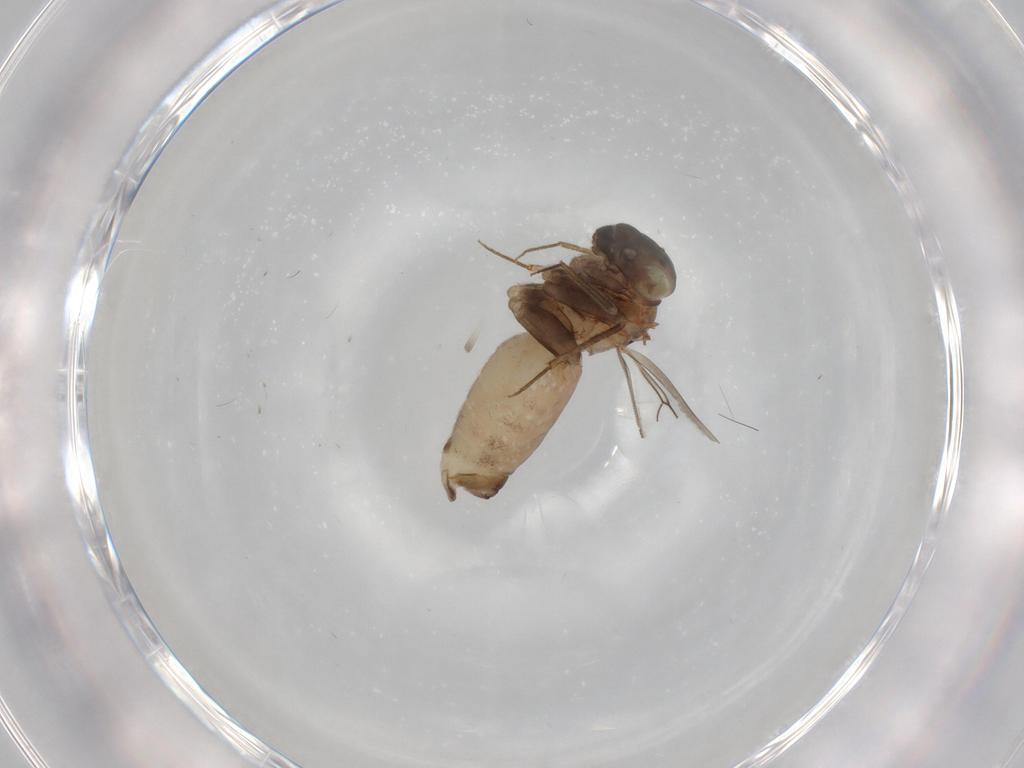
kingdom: Animalia
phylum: Arthropoda
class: Insecta
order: Psocodea
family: Lepidopsocidae
